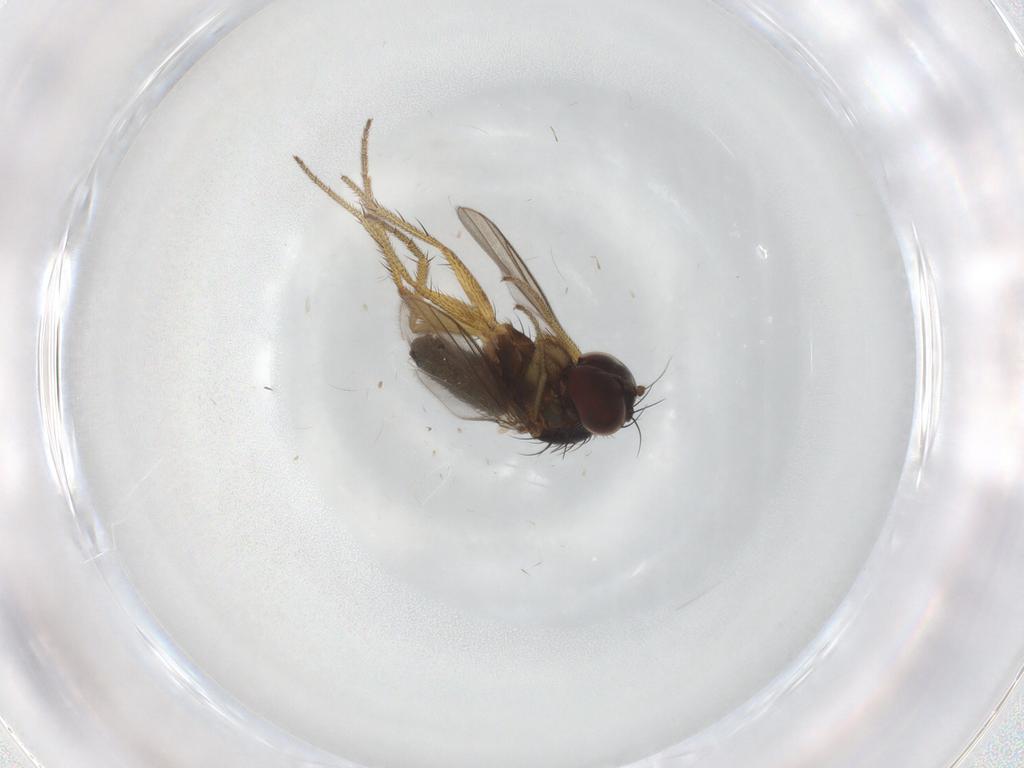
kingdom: Animalia
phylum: Arthropoda
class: Insecta
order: Diptera
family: Dolichopodidae
